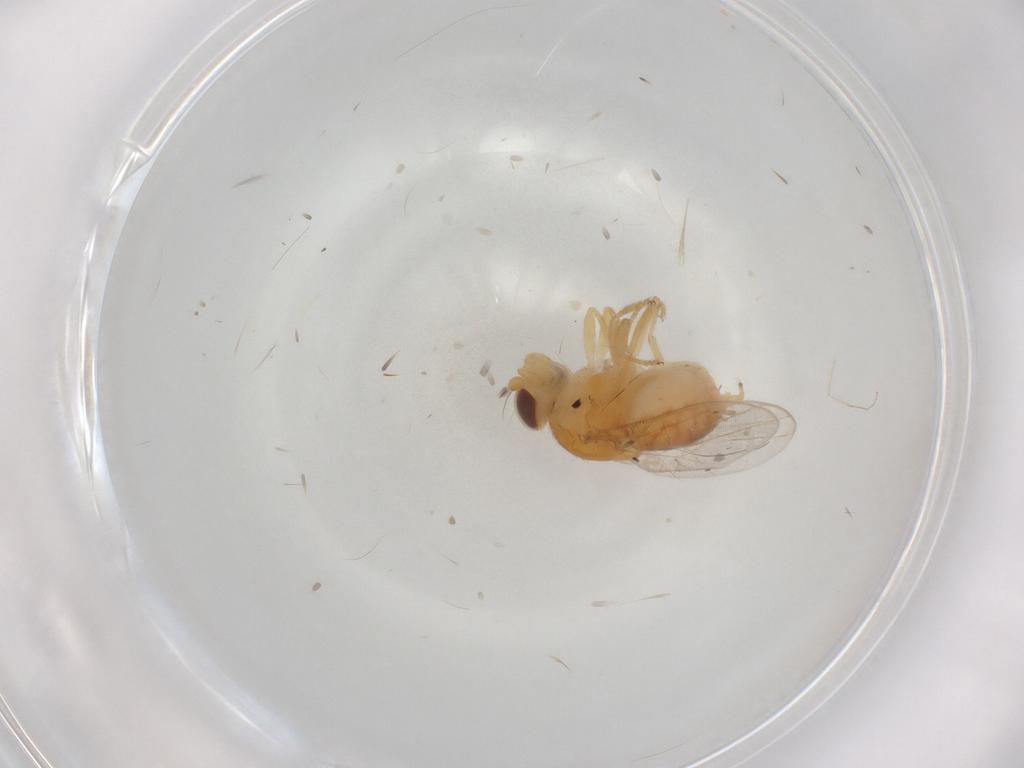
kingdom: Animalia
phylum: Arthropoda
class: Insecta
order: Diptera
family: Chloropidae
